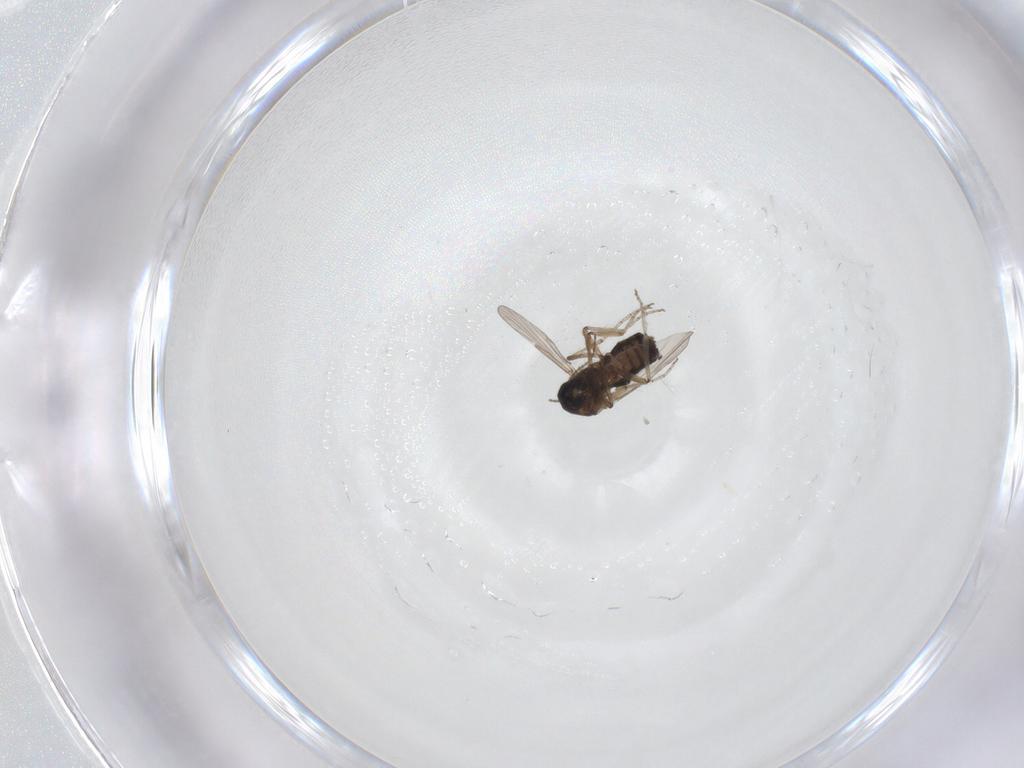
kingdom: Animalia
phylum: Arthropoda
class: Insecta
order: Diptera
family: Ceratopogonidae
